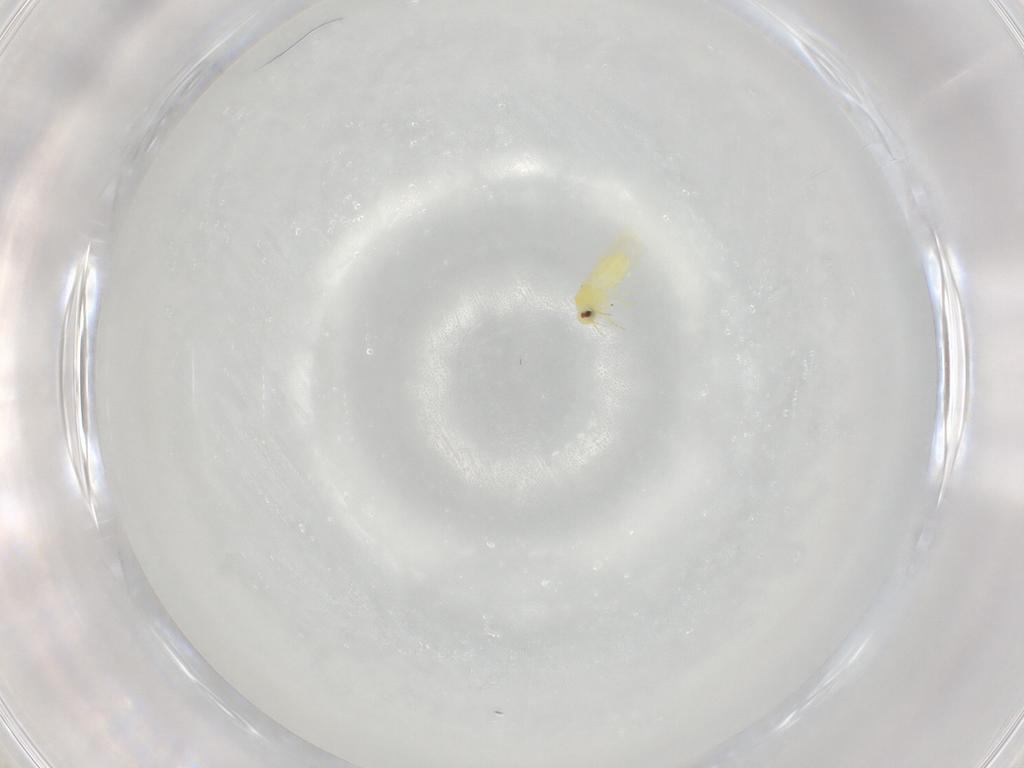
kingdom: Animalia
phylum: Arthropoda
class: Insecta
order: Hemiptera
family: Aleyrodidae
